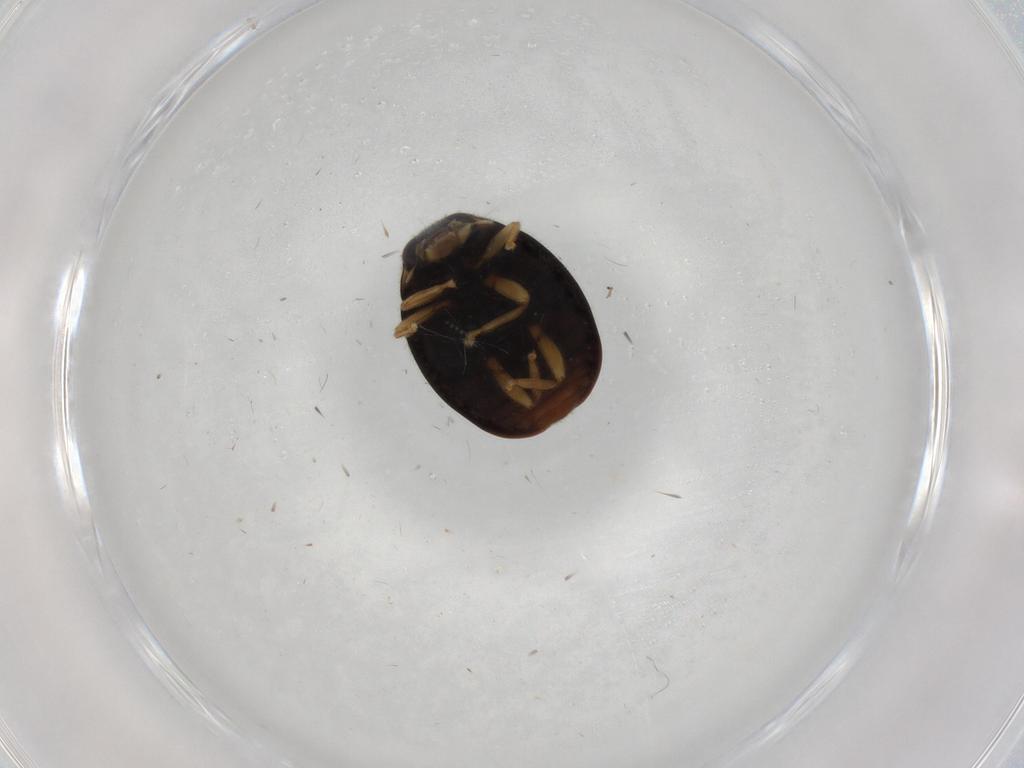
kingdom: Animalia
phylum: Arthropoda
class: Insecta
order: Coleoptera
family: Coccinellidae
